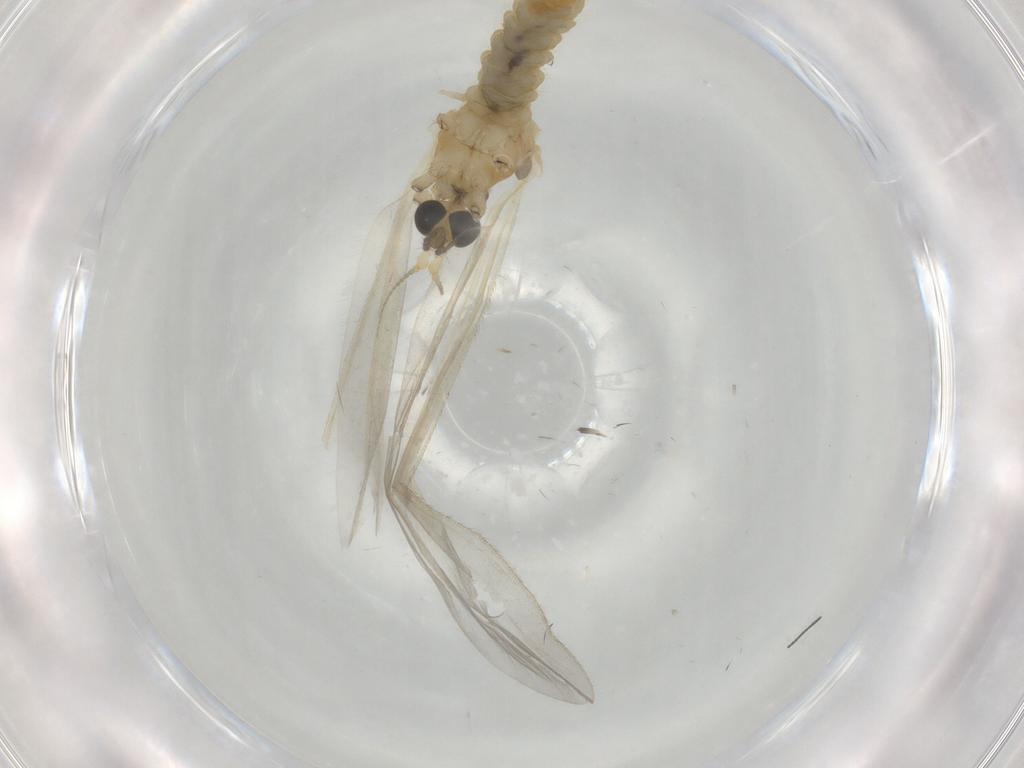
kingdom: Animalia
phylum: Arthropoda
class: Insecta
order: Diptera
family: Limoniidae
